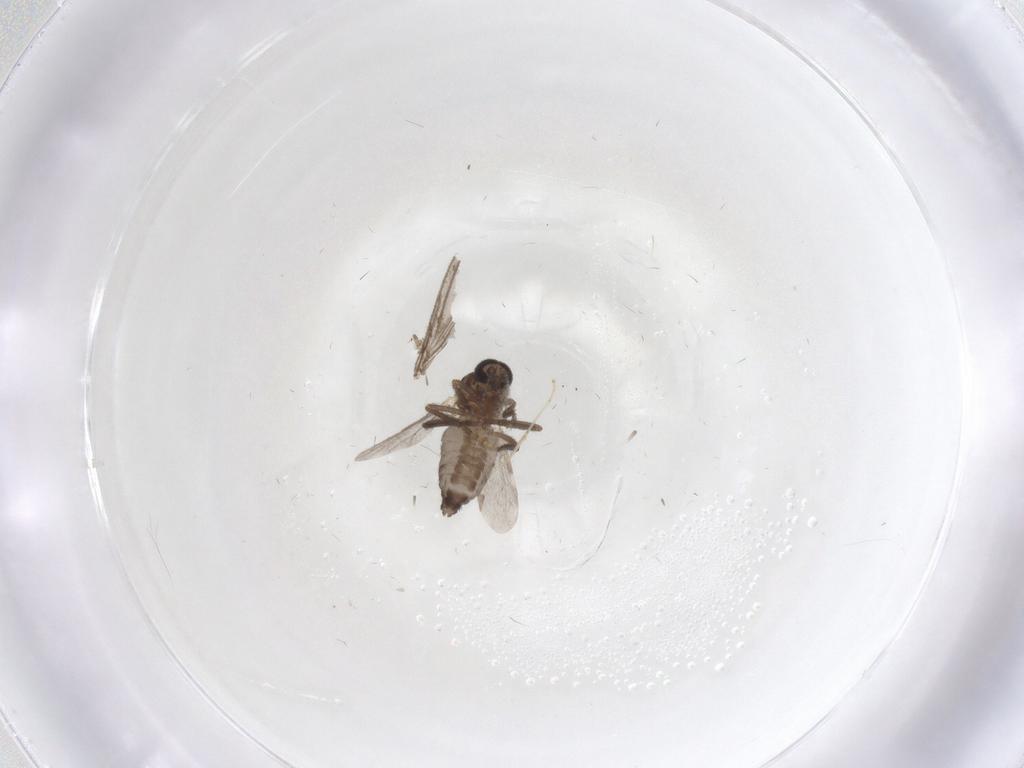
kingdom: Animalia
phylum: Arthropoda
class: Insecta
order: Diptera
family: Ceratopogonidae
